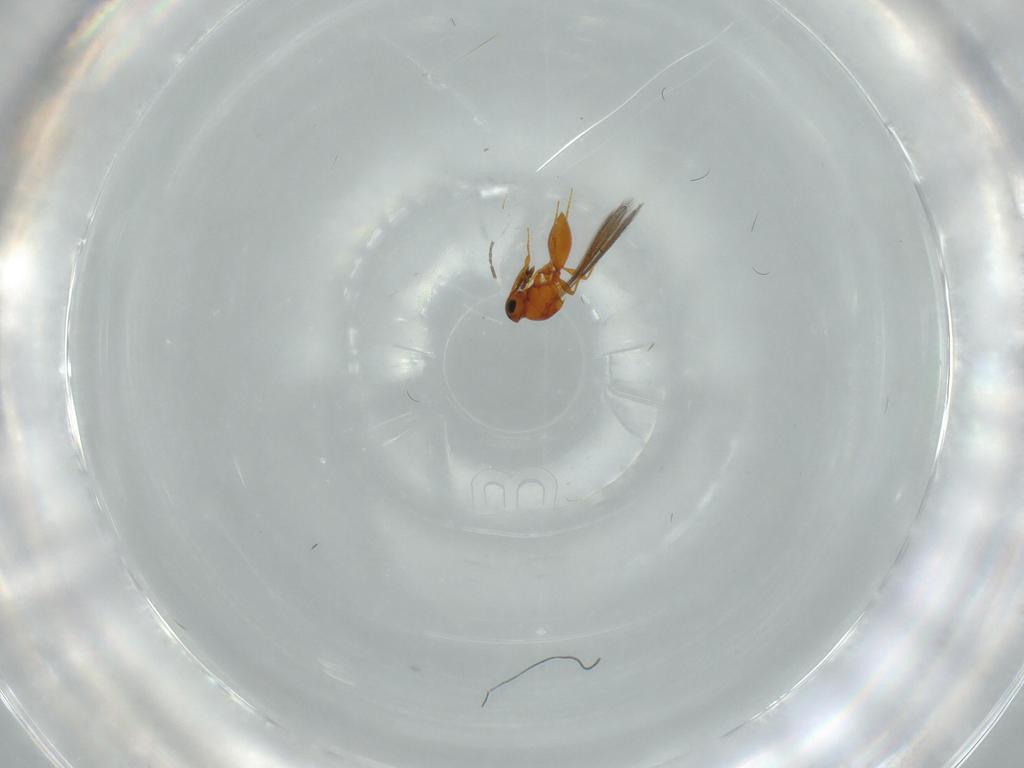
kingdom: Animalia
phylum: Arthropoda
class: Insecta
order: Hymenoptera
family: Diapriidae
